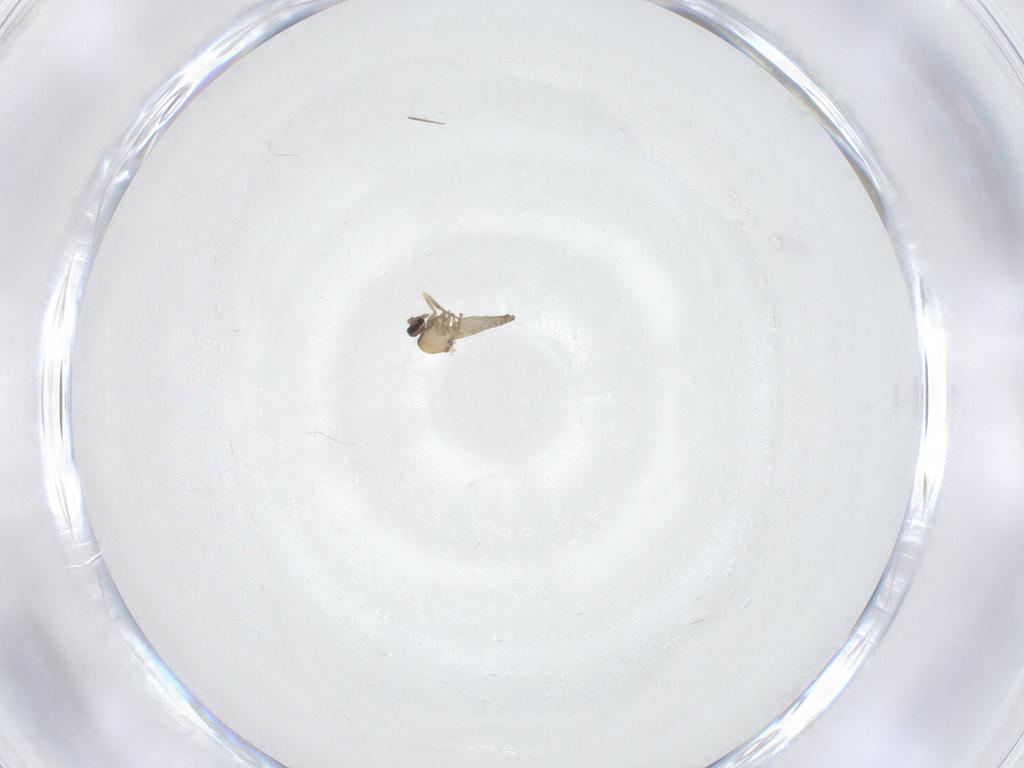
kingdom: Animalia
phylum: Arthropoda
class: Insecta
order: Diptera
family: Ceratopogonidae
